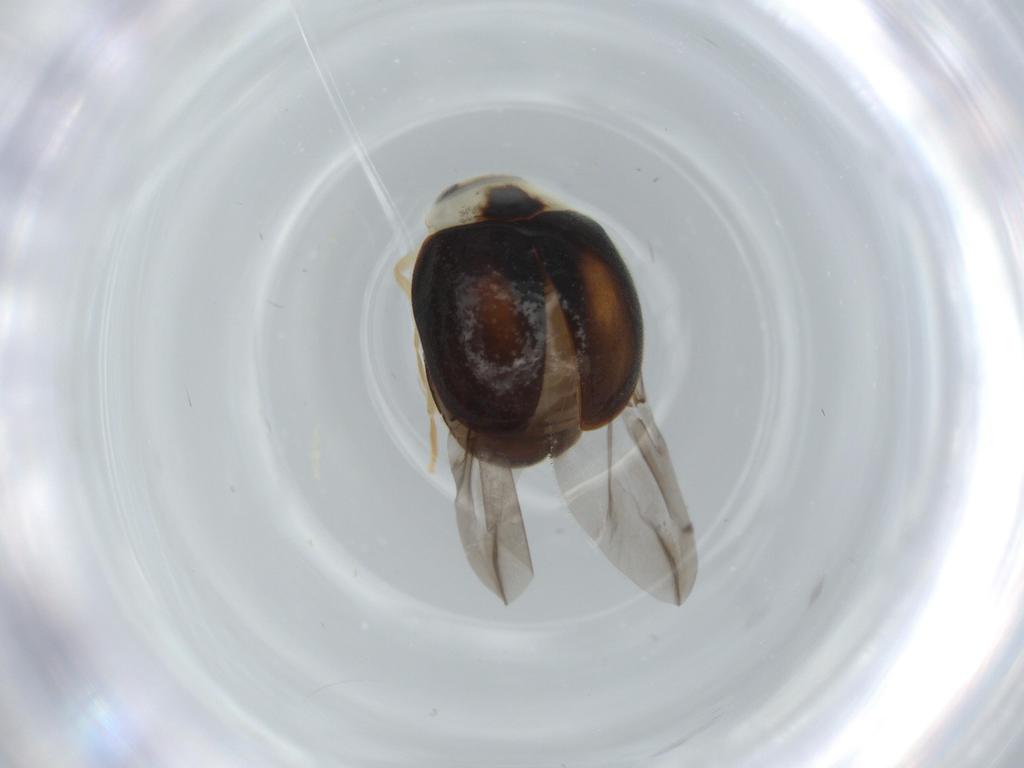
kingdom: Animalia
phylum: Arthropoda
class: Insecta
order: Coleoptera
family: Coccinellidae
